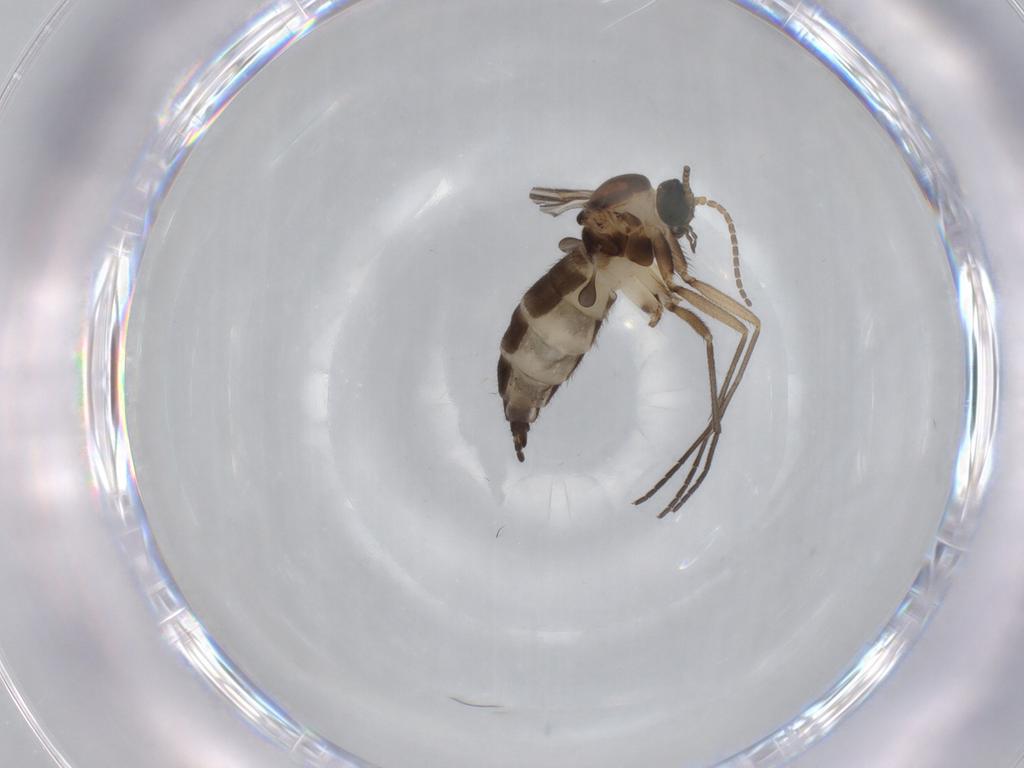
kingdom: Animalia
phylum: Arthropoda
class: Insecta
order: Diptera
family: Sciaridae
